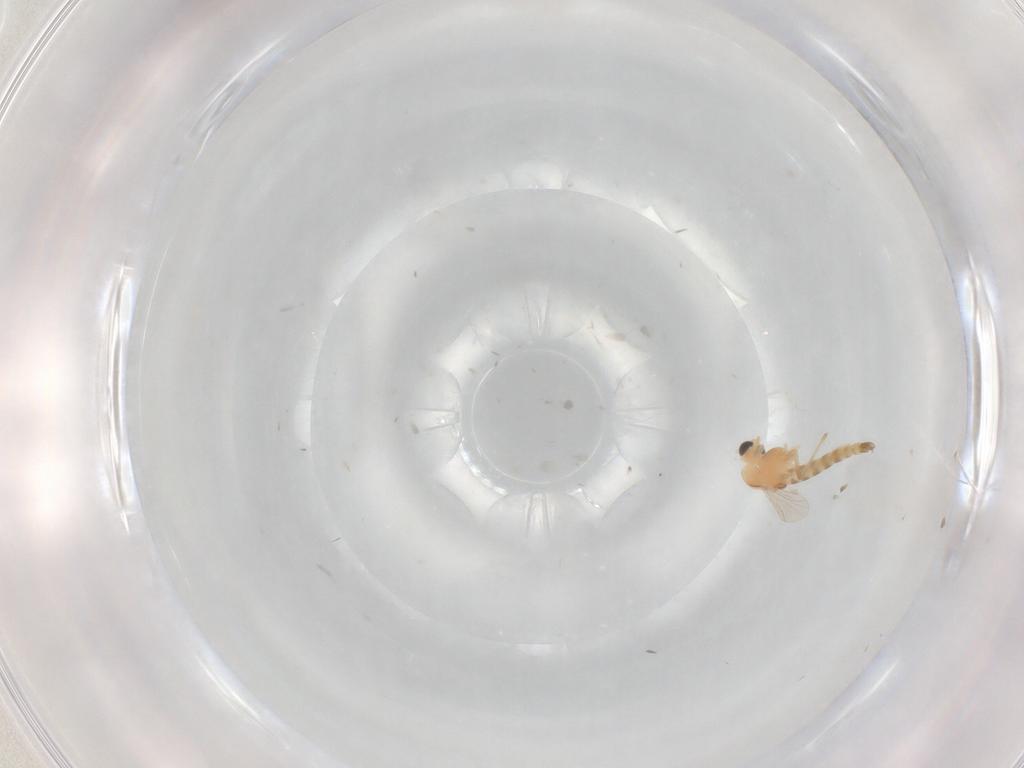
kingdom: Animalia
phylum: Arthropoda
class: Insecta
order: Diptera
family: Chironomidae
